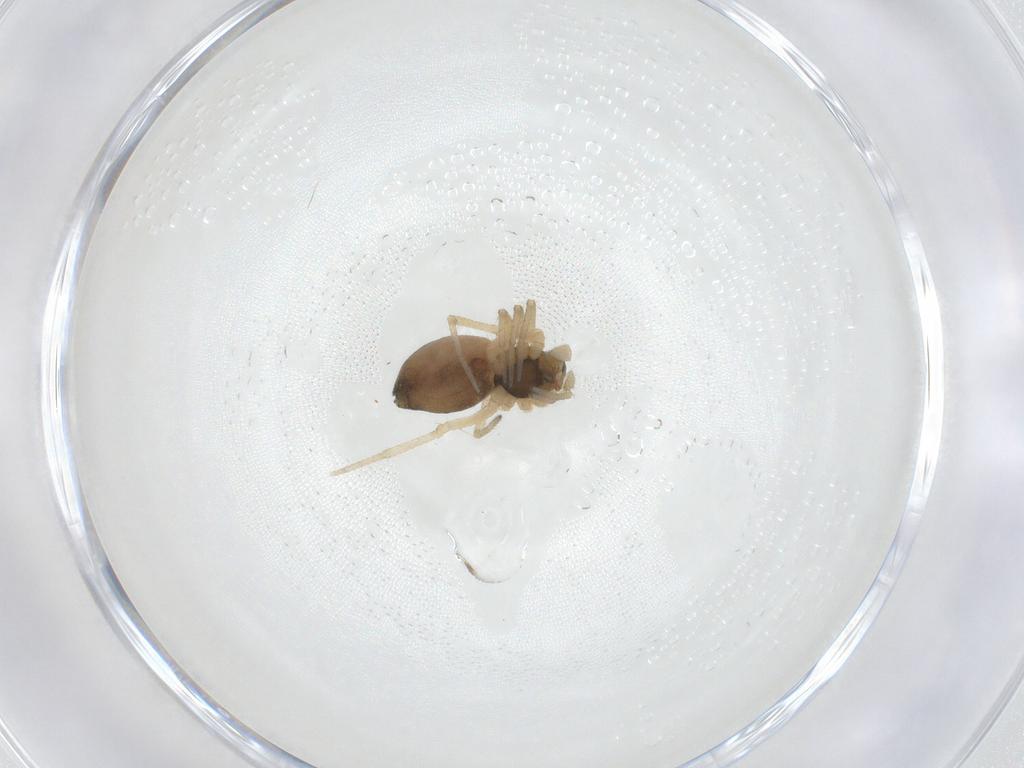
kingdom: Animalia
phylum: Arthropoda
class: Arachnida
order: Araneae
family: Linyphiidae
